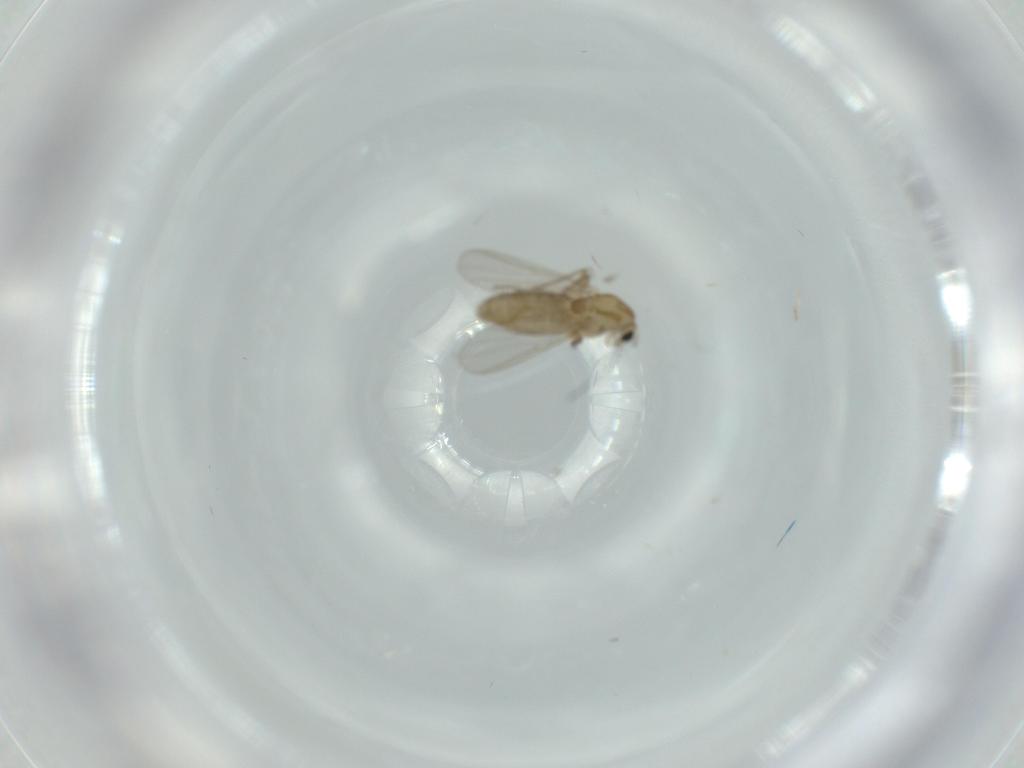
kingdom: Animalia
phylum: Arthropoda
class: Insecta
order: Diptera
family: Chironomidae
